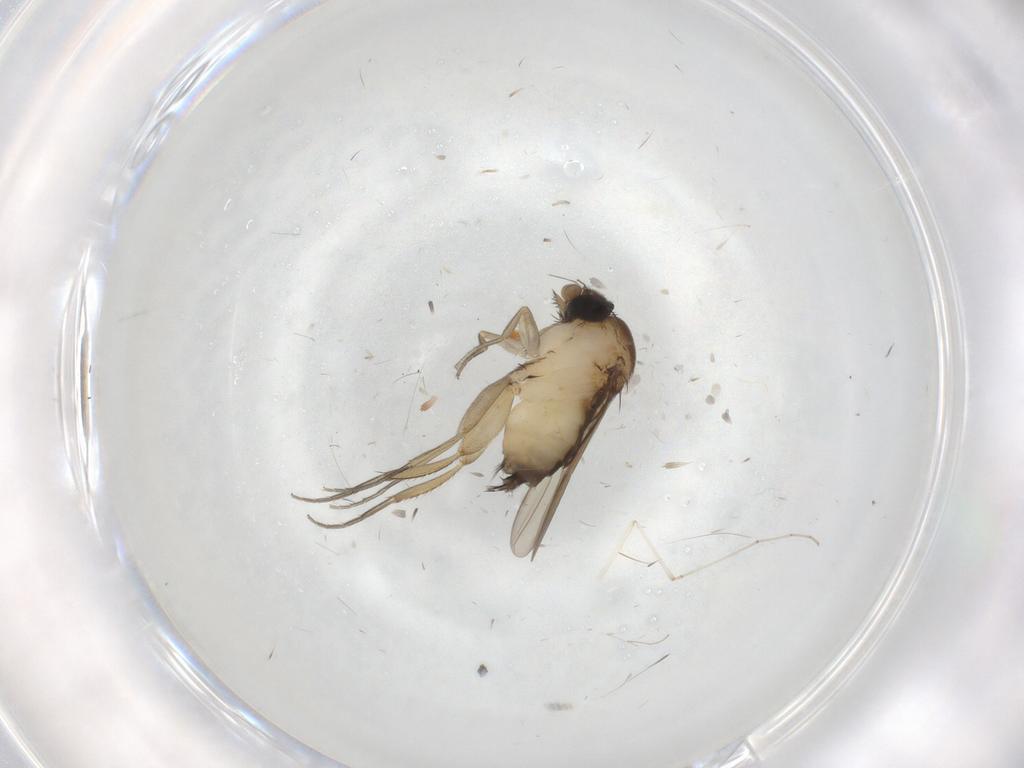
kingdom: Animalia
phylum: Arthropoda
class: Insecta
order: Diptera
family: Phoridae
